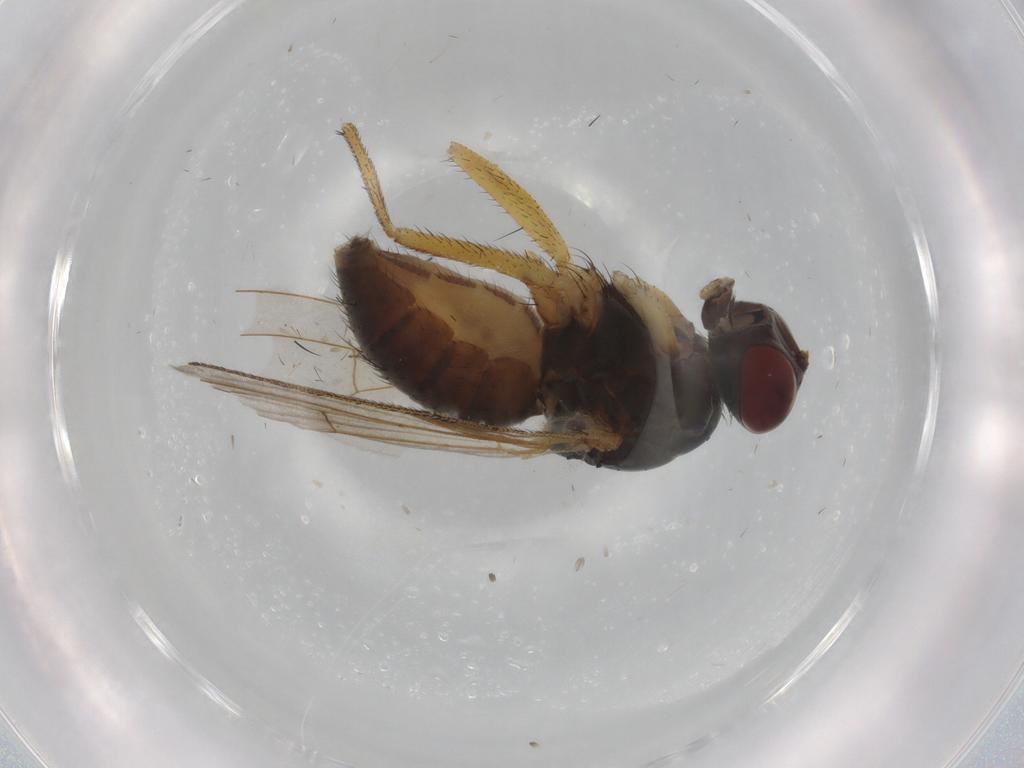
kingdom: Animalia
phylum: Arthropoda
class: Insecta
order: Diptera
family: Muscidae
